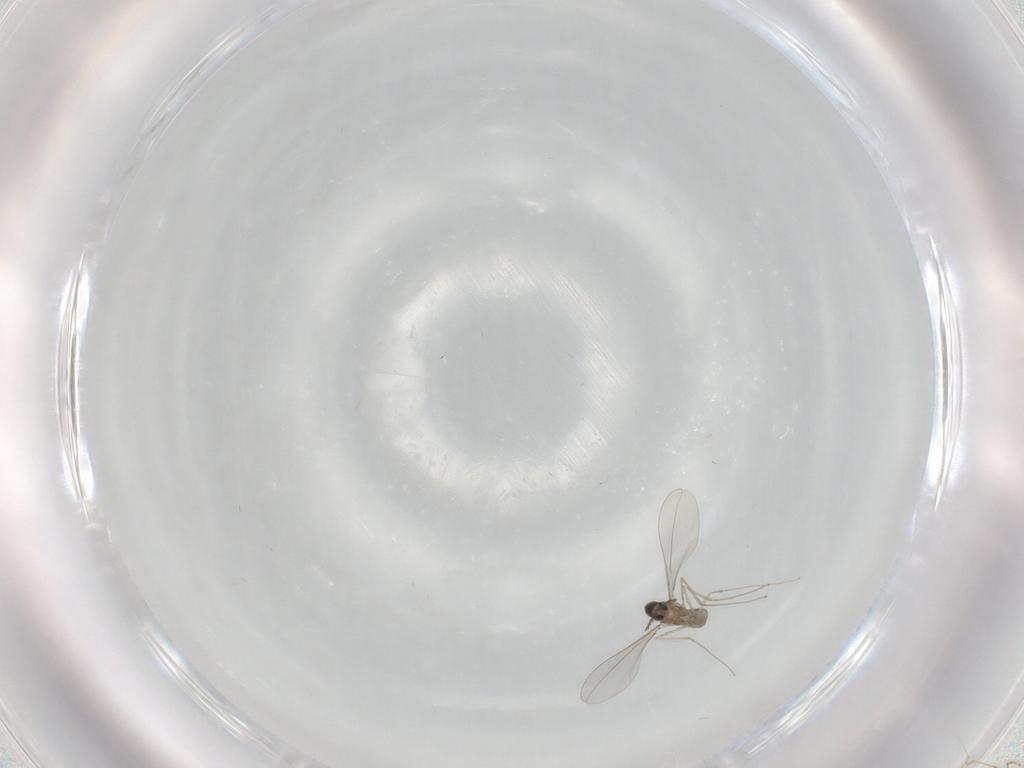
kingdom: Animalia
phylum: Arthropoda
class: Insecta
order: Diptera
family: Cecidomyiidae
